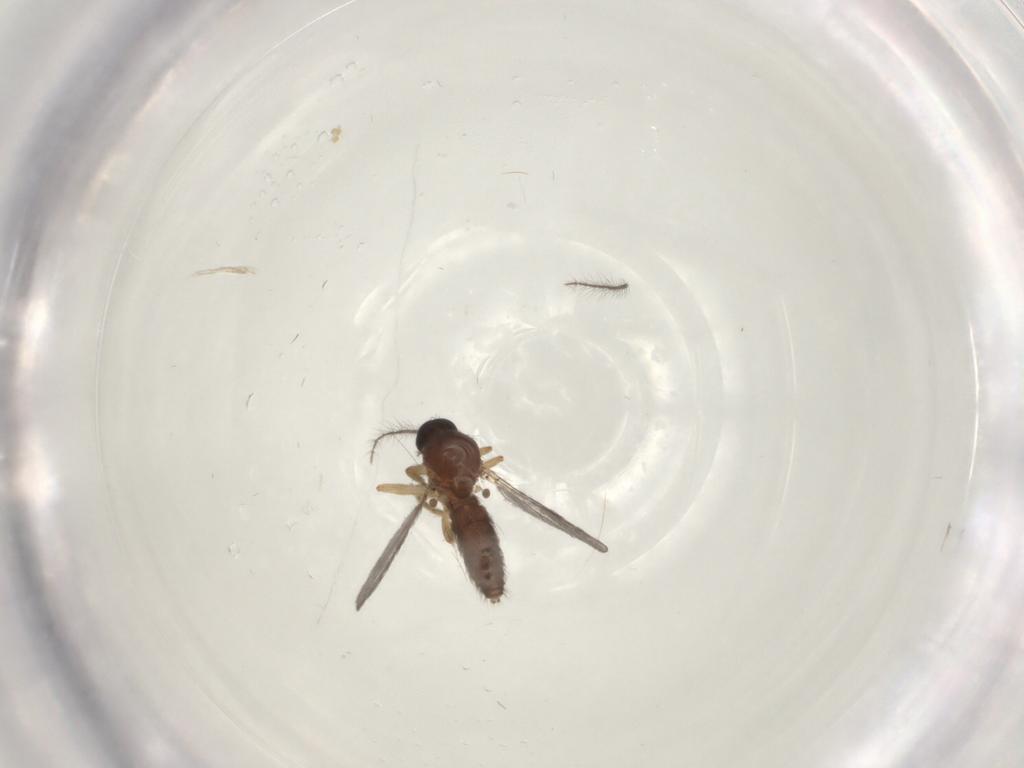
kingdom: Animalia
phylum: Arthropoda
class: Insecta
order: Diptera
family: Ceratopogonidae
